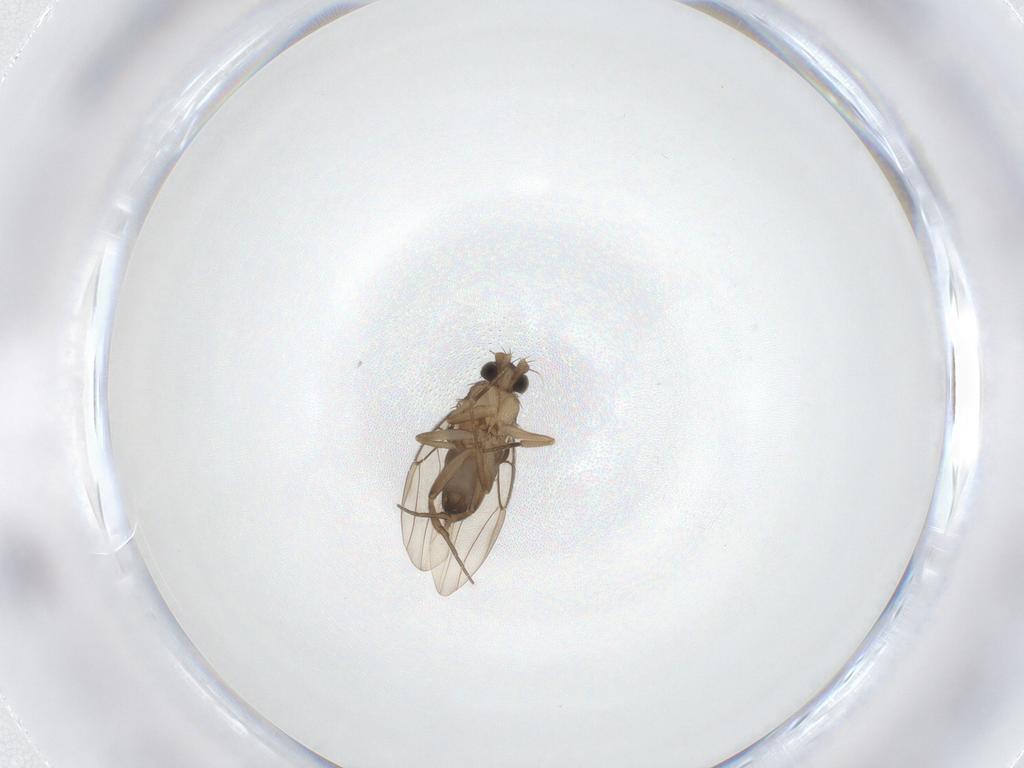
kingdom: Animalia
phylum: Arthropoda
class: Insecta
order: Diptera
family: Phoridae
